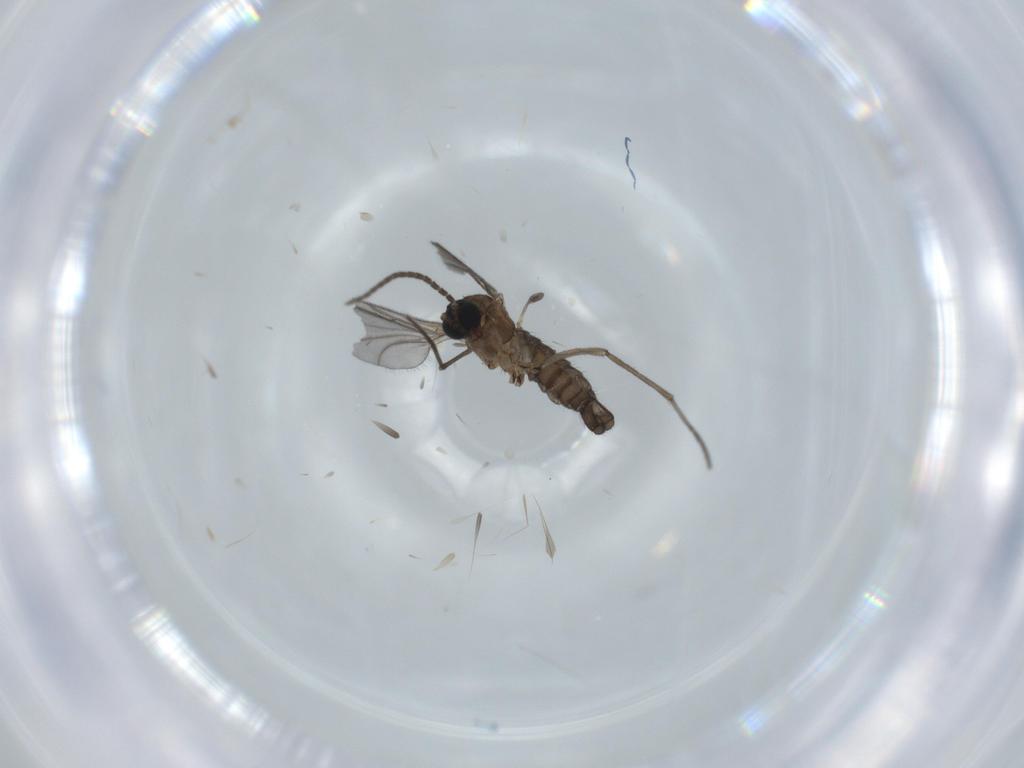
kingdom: Animalia
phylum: Arthropoda
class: Insecta
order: Diptera
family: Sciaridae
